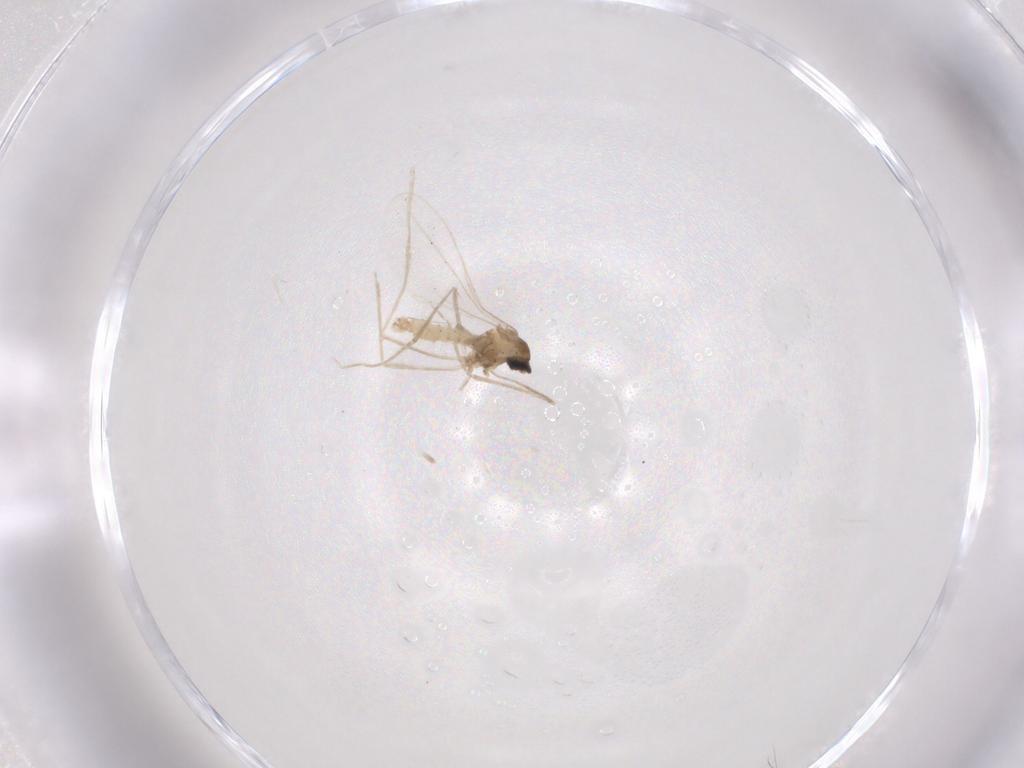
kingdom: Animalia
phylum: Arthropoda
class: Insecta
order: Diptera
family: Cecidomyiidae
